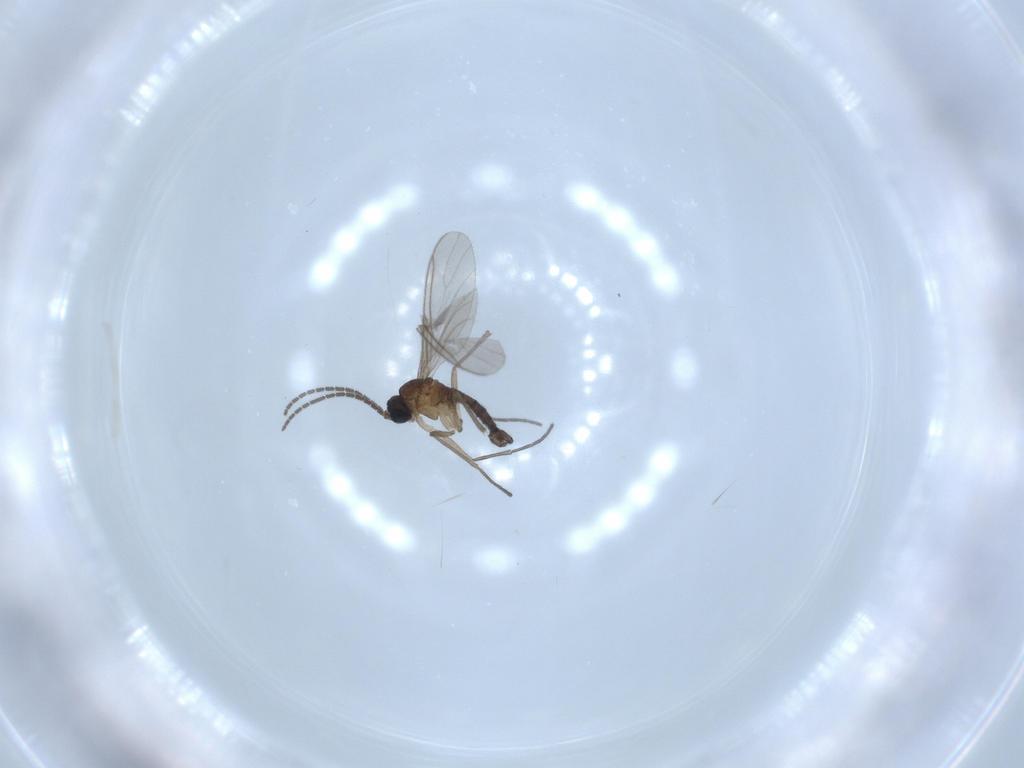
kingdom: Animalia
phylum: Arthropoda
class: Insecta
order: Diptera
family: Sciaridae
